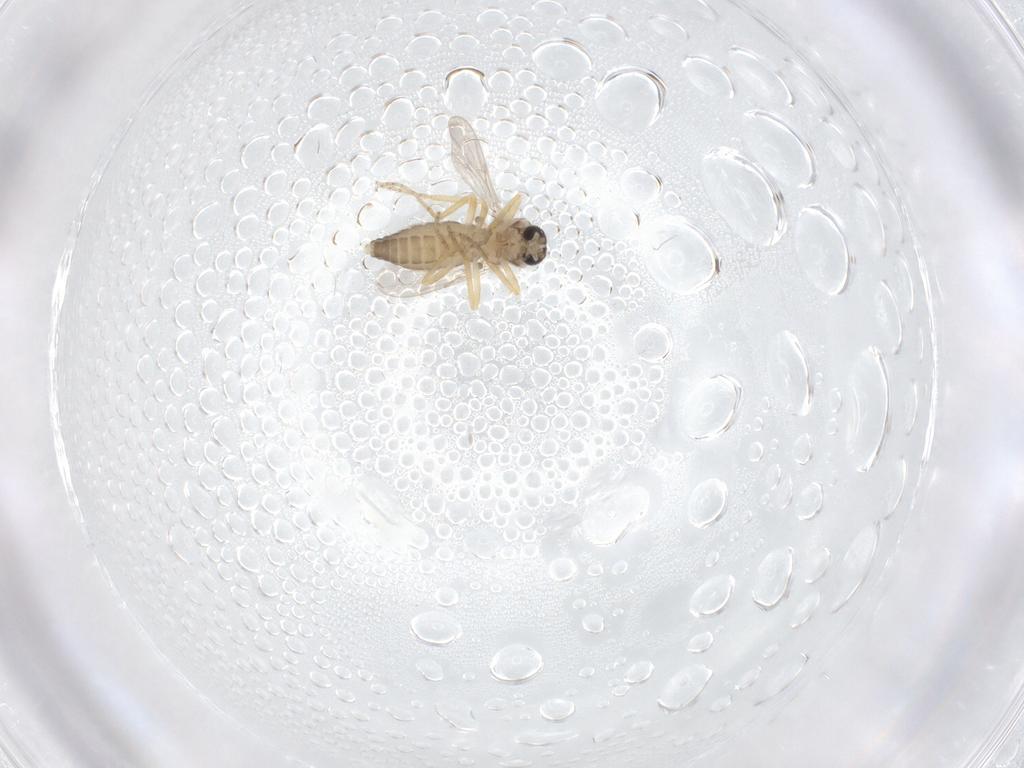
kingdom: Animalia
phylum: Arthropoda
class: Insecta
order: Diptera
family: Ceratopogonidae
